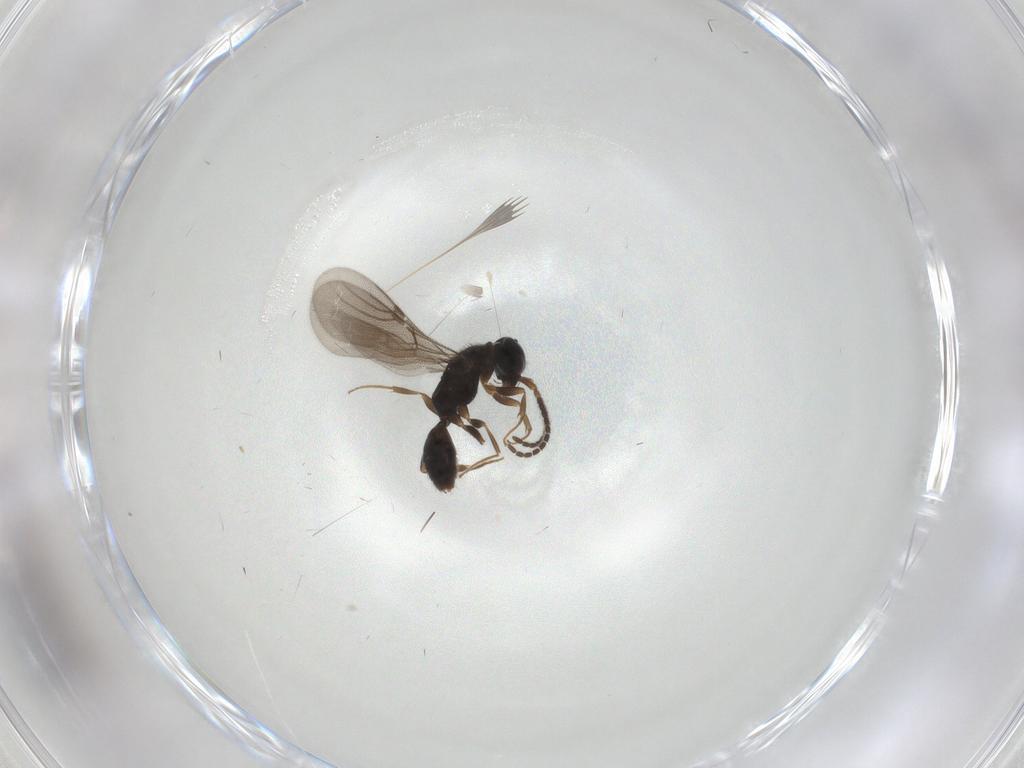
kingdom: Animalia
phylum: Arthropoda
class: Insecta
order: Hymenoptera
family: Bethylidae
